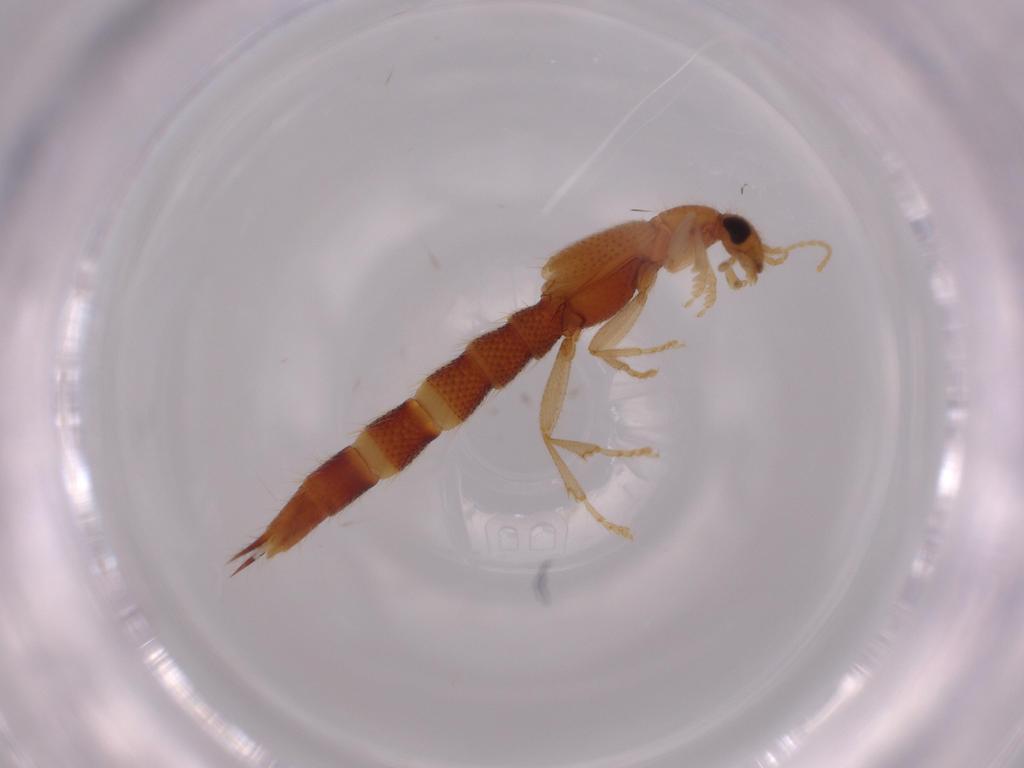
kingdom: Animalia
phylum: Arthropoda
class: Insecta
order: Coleoptera
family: Staphylinidae
